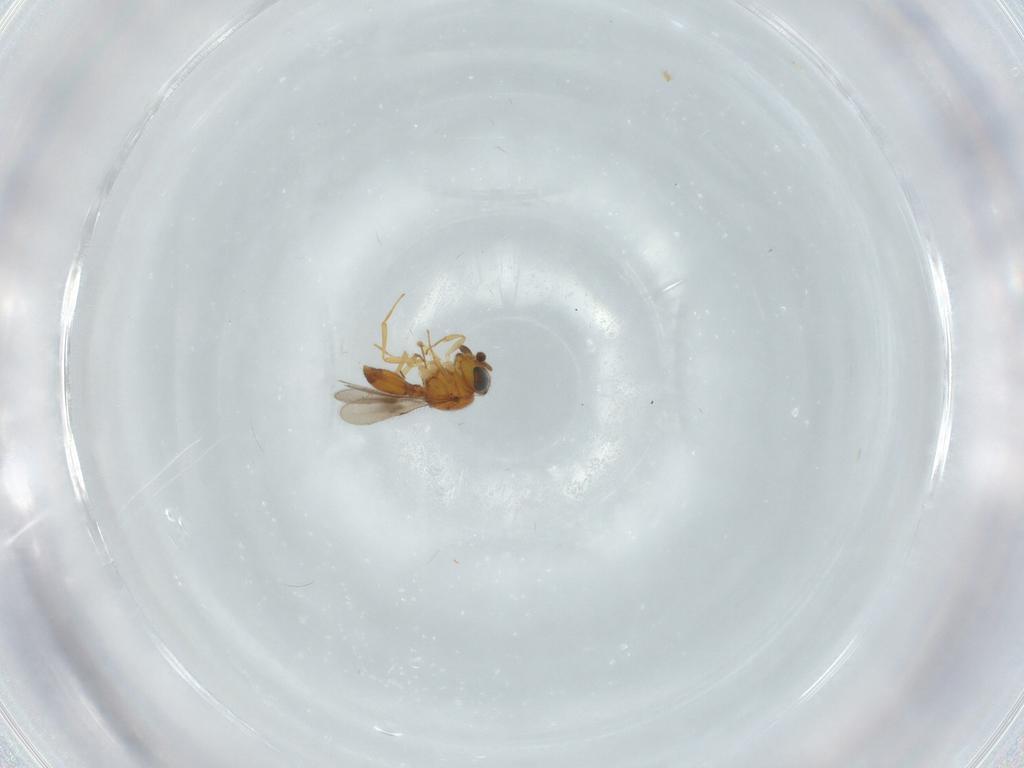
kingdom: Animalia
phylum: Arthropoda
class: Insecta
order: Hymenoptera
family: Scelionidae
